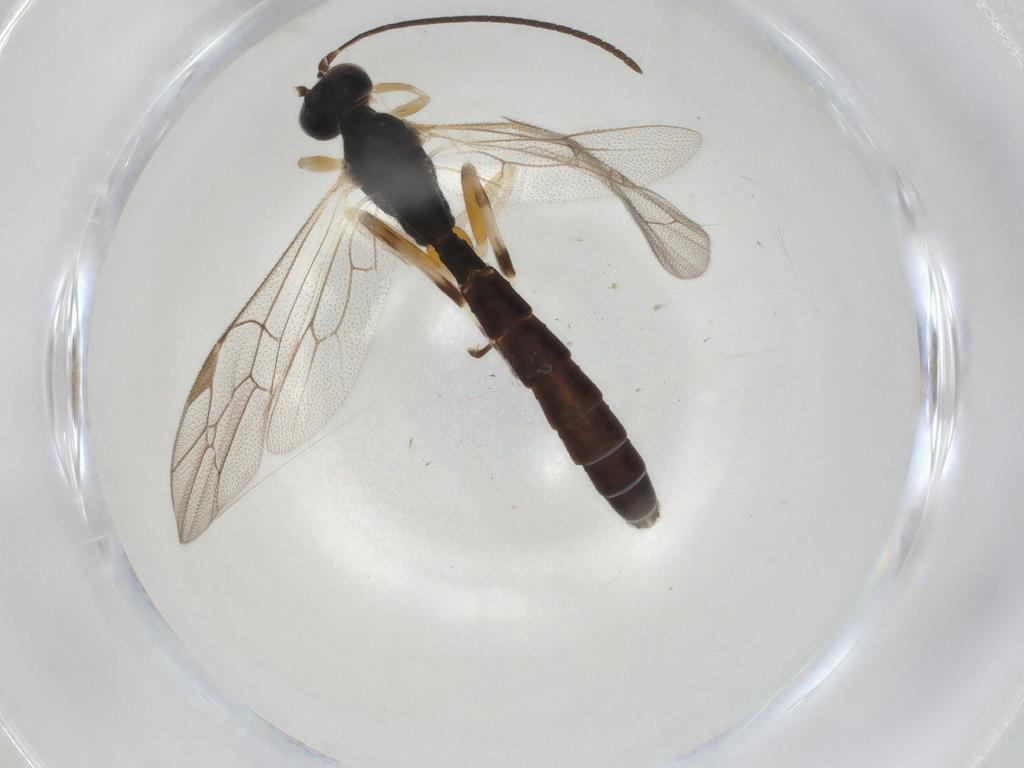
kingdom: Animalia
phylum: Arthropoda
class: Insecta
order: Hymenoptera
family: Ichneumonidae
